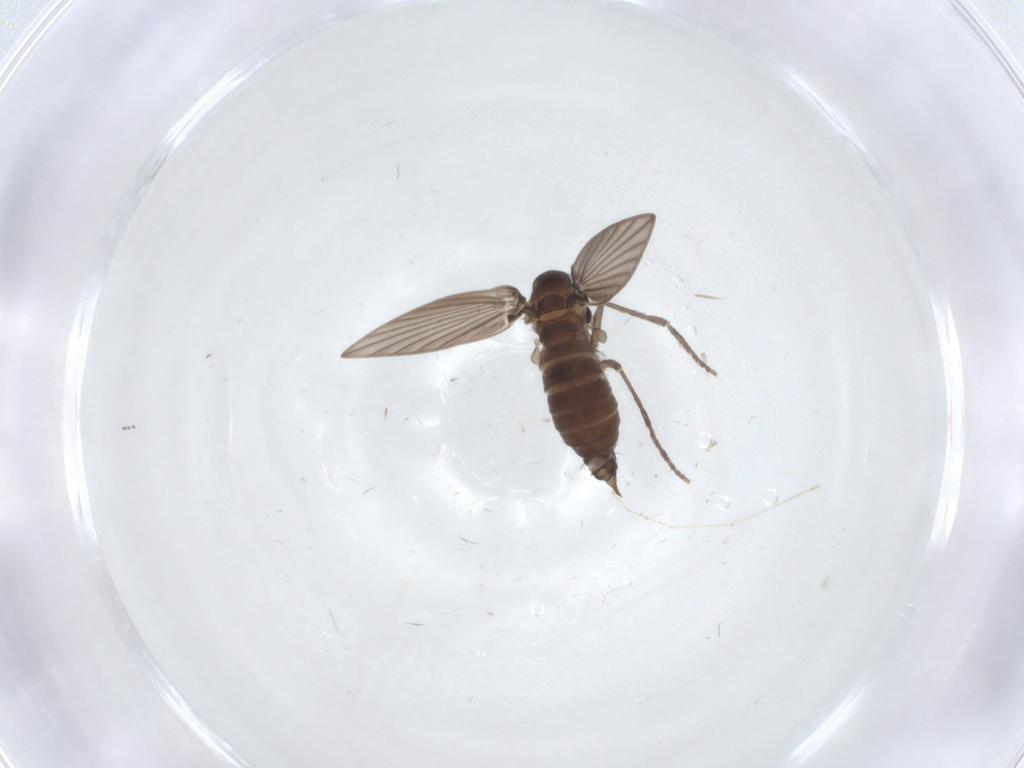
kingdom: Animalia
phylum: Arthropoda
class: Insecta
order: Diptera
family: Psychodidae
